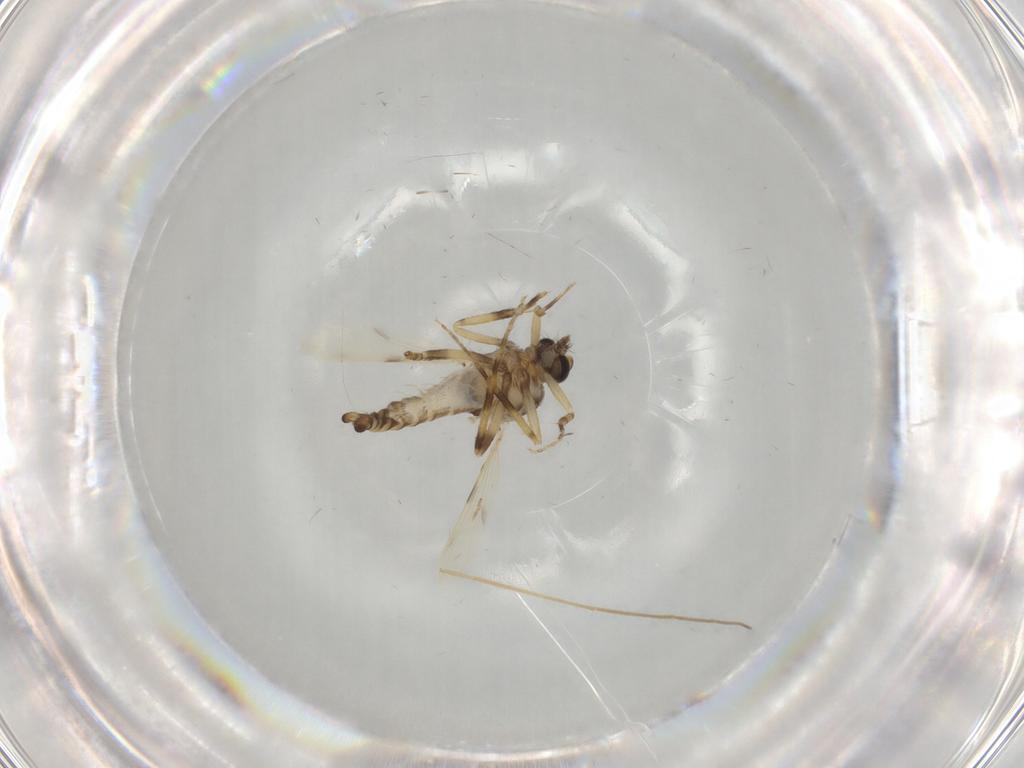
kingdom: Animalia
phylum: Arthropoda
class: Insecta
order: Diptera
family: Ceratopogonidae
